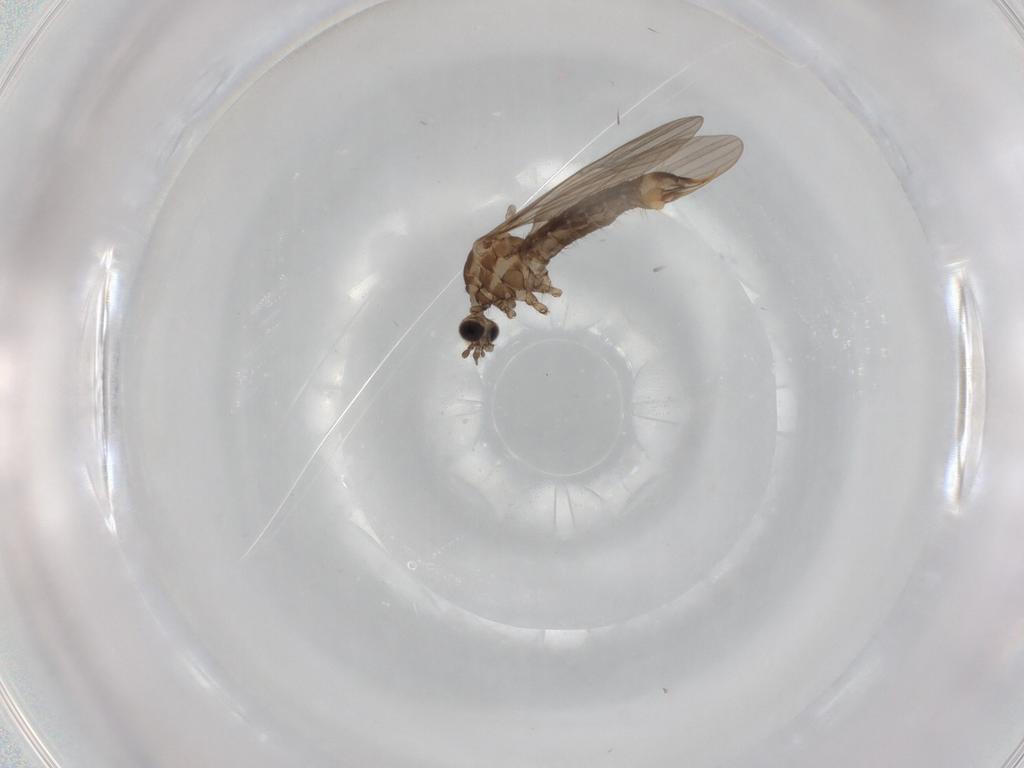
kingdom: Animalia
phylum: Arthropoda
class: Insecta
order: Diptera
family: Limoniidae
